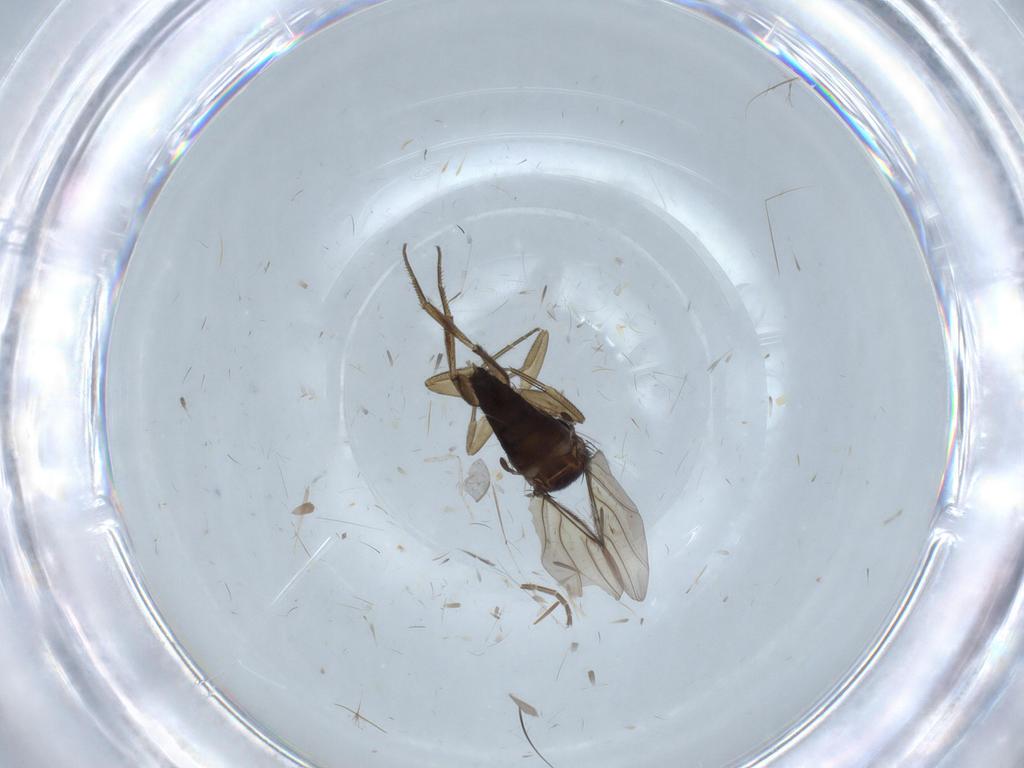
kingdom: Animalia
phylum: Arthropoda
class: Insecta
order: Diptera
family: Phoridae
